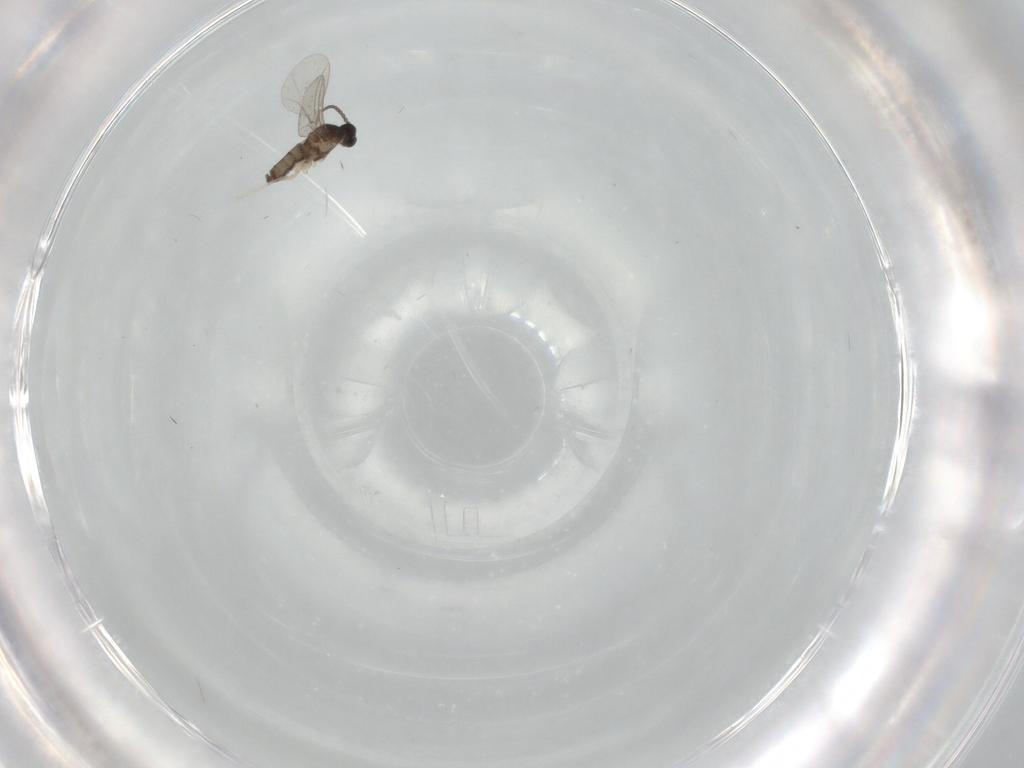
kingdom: Animalia
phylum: Arthropoda
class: Insecta
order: Diptera
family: Cecidomyiidae
